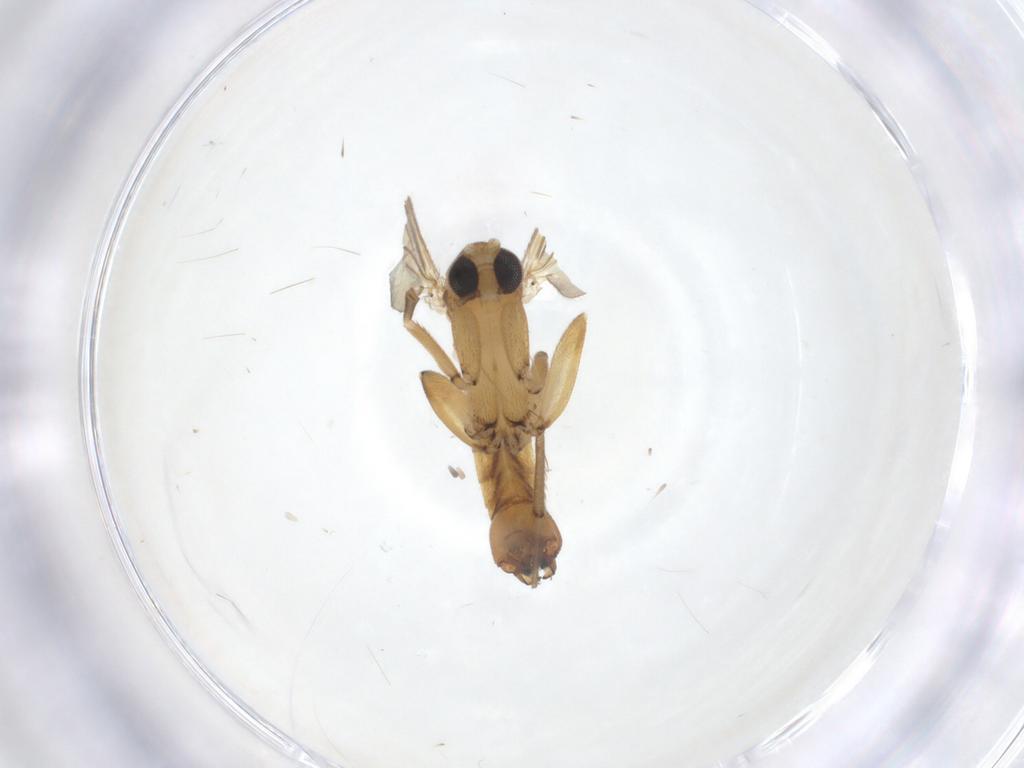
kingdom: Animalia
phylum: Arthropoda
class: Insecta
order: Diptera
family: Mycetophilidae
